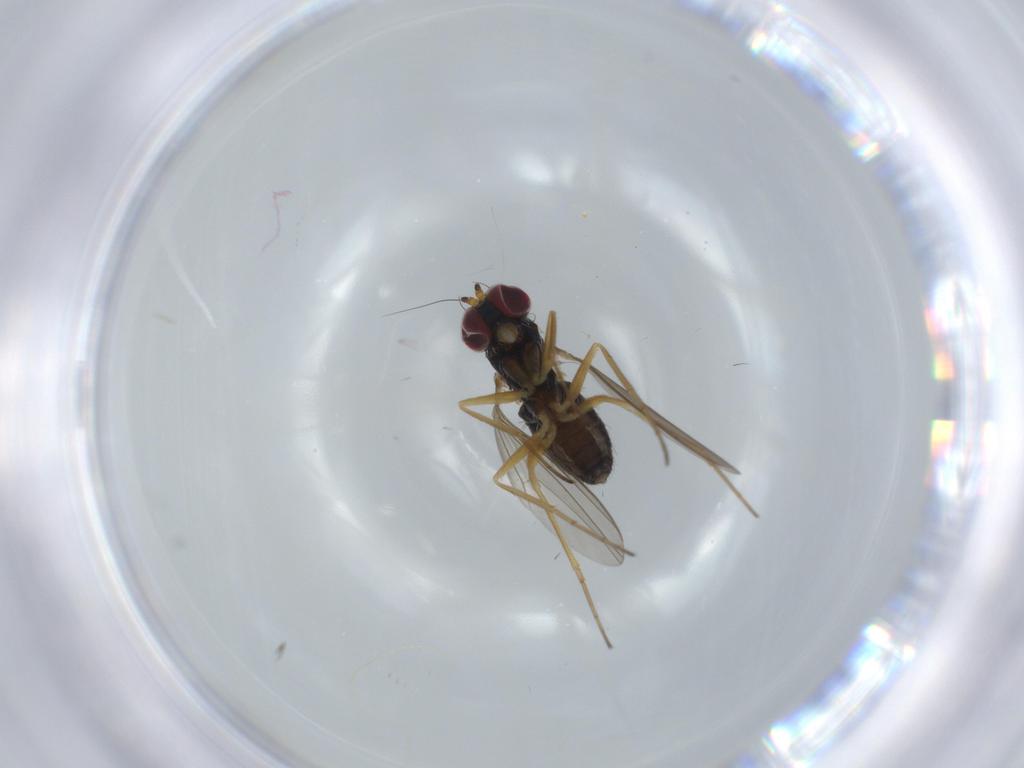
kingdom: Animalia
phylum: Arthropoda
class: Insecta
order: Diptera
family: Dolichopodidae
